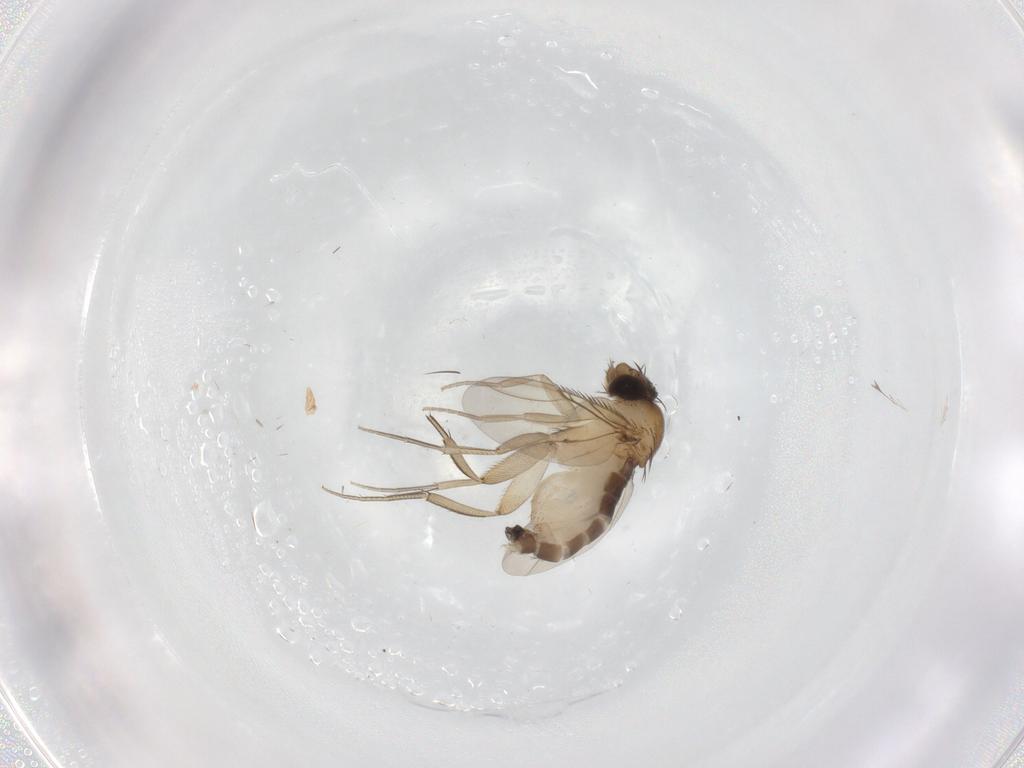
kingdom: Animalia
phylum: Arthropoda
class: Insecta
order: Diptera
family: Phoridae
